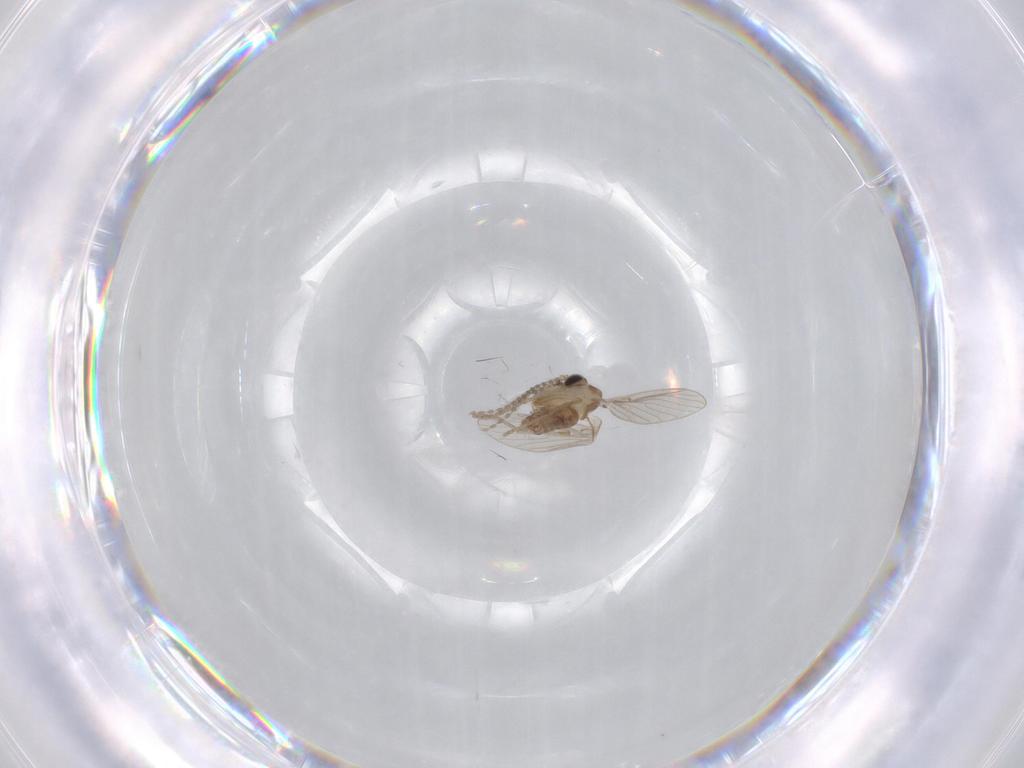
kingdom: Animalia
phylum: Arthropoda
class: Insecta
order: Diptera
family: Psychodidae
